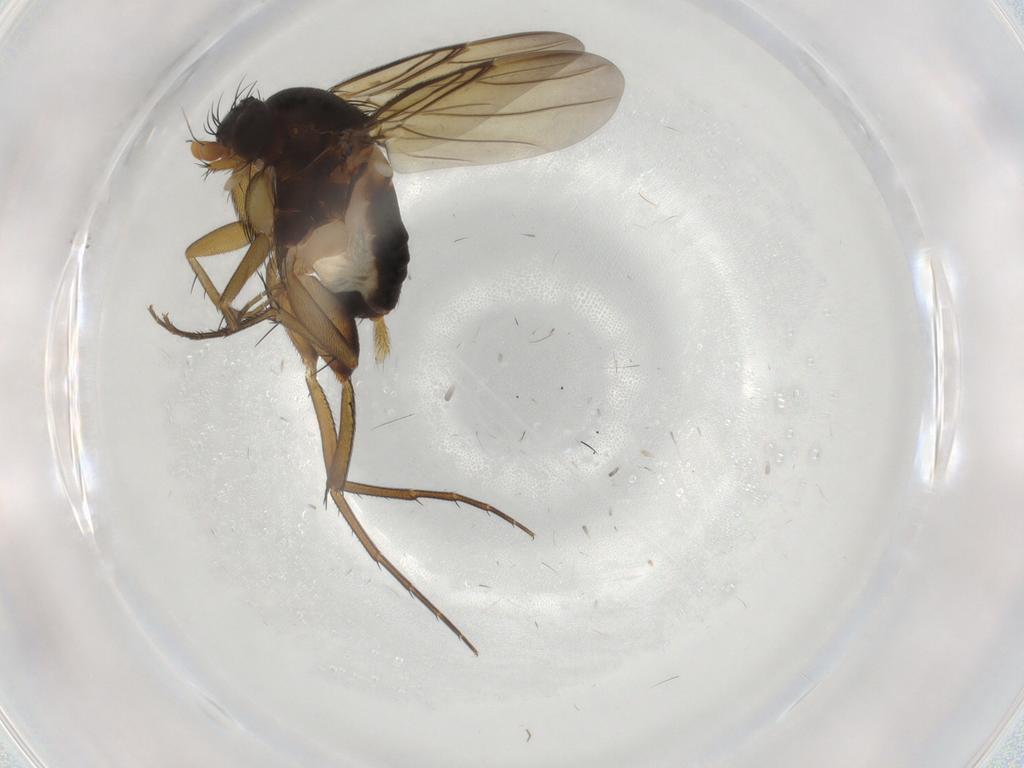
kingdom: Animalia
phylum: Arthropoda
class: Insecta
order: Diptera
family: Phoridae
